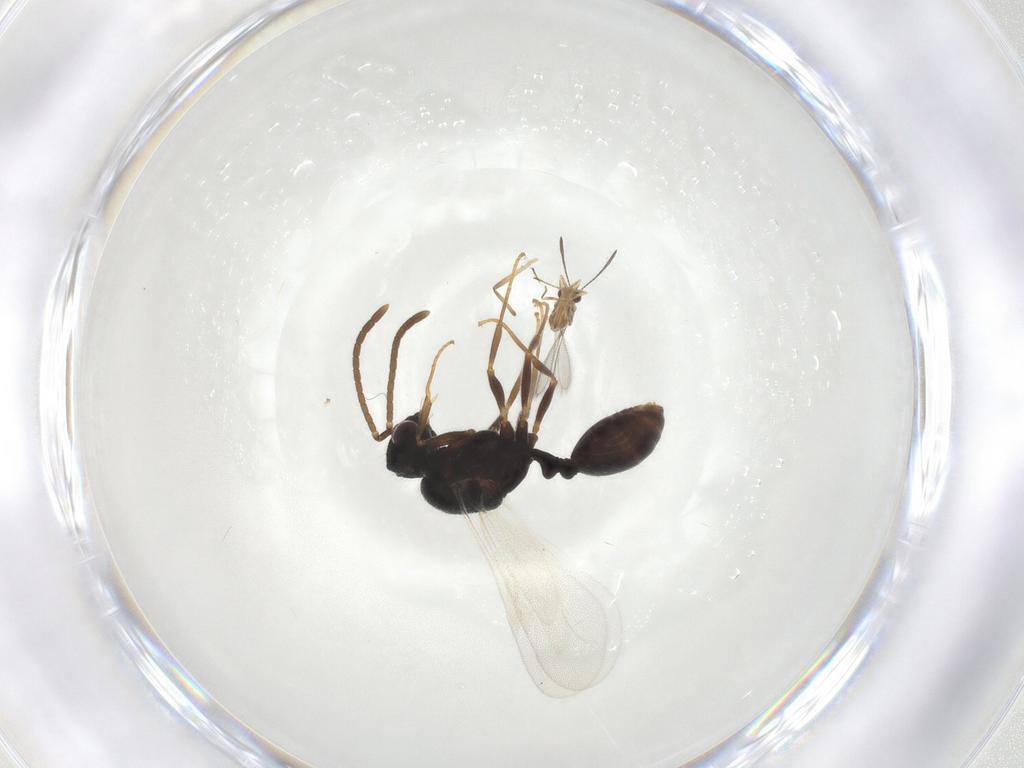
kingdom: Animalia
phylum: Arthropoda
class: Insecta
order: Hymenoptera
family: Formicidae
